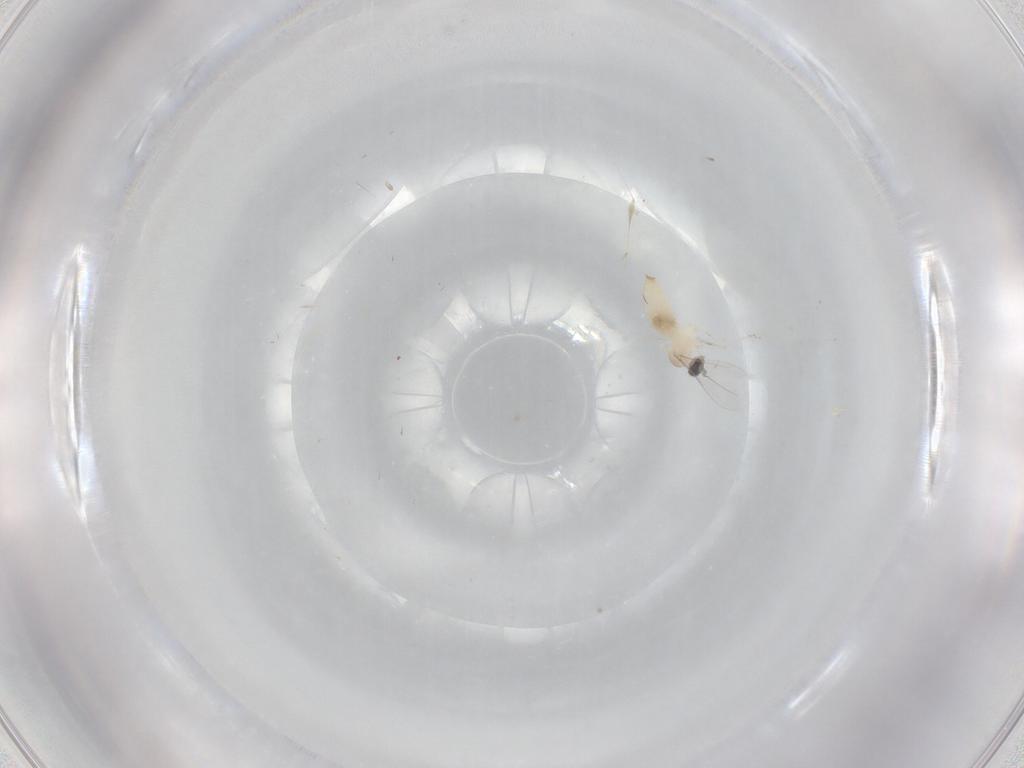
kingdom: Animalia
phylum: Arthropoda
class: Insecta
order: Diptera
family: Cecidomyiidae
